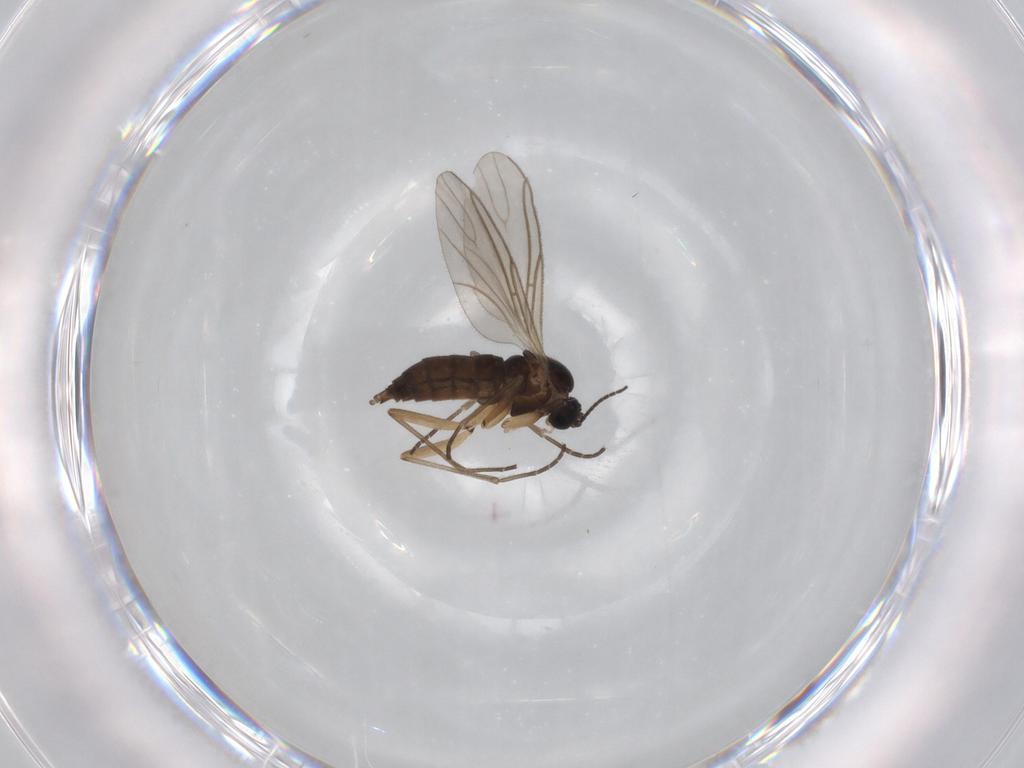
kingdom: Animalia
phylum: Arthropoda
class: Insecta
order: Diptera
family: Sciaridae
